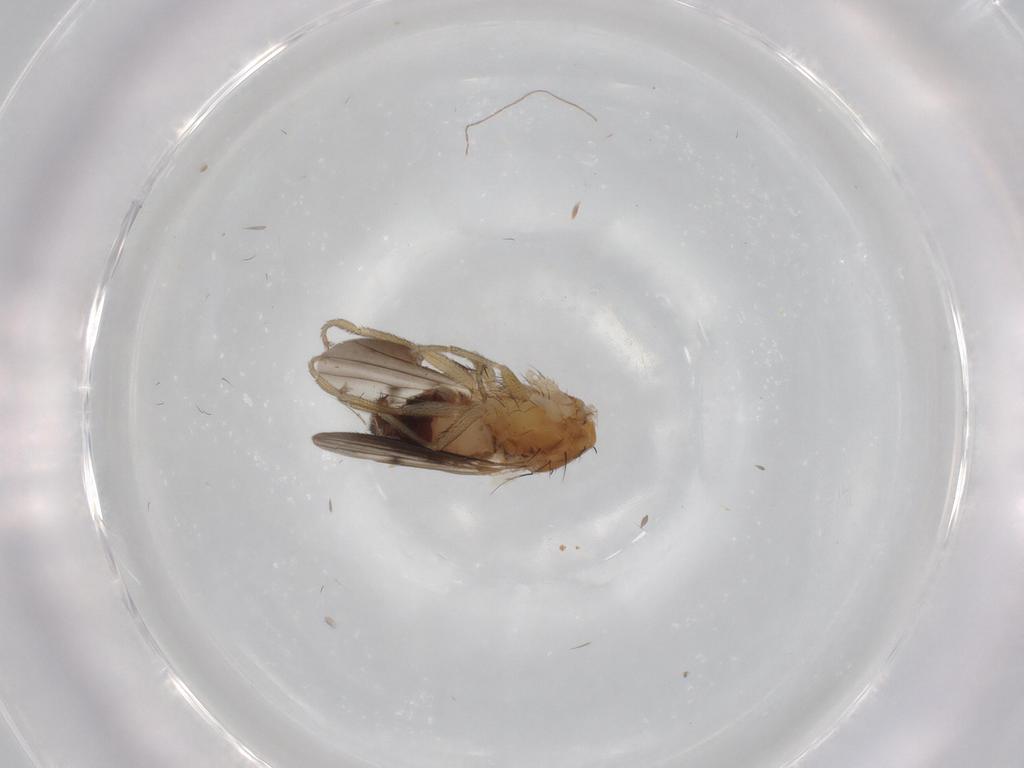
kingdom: Animalia
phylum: Arthropoda
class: Insecta
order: Diptera
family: Heleomyzidae
